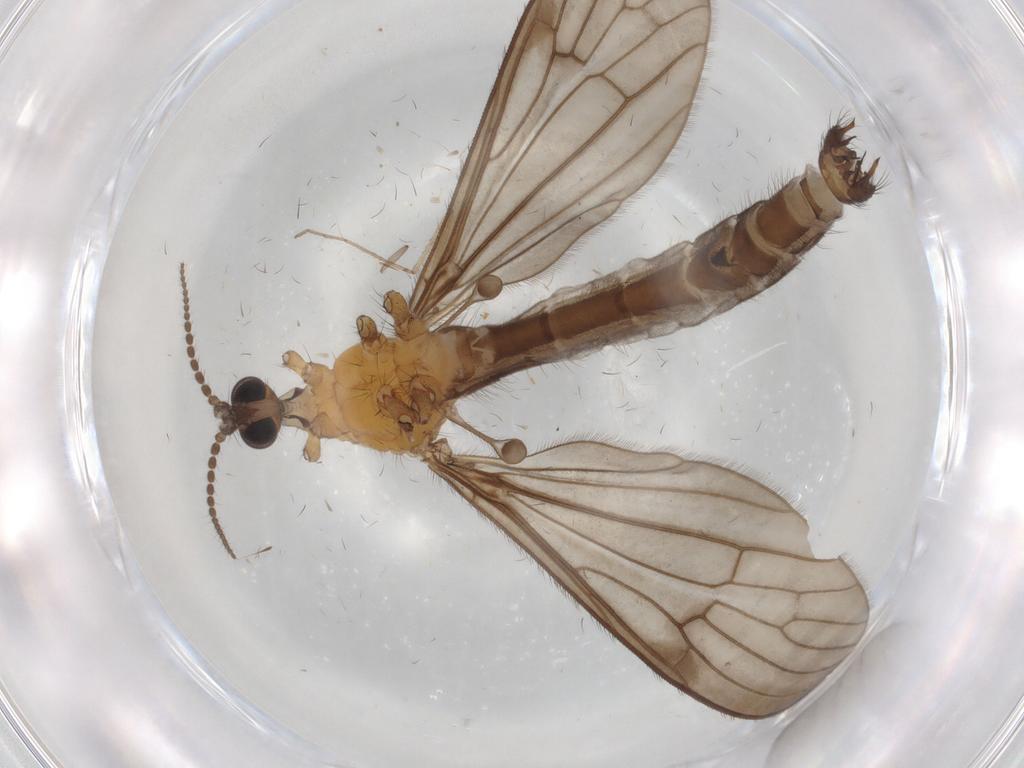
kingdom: Animalia
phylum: Arthropoda
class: Insecta
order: Diptera
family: Limoniidae
